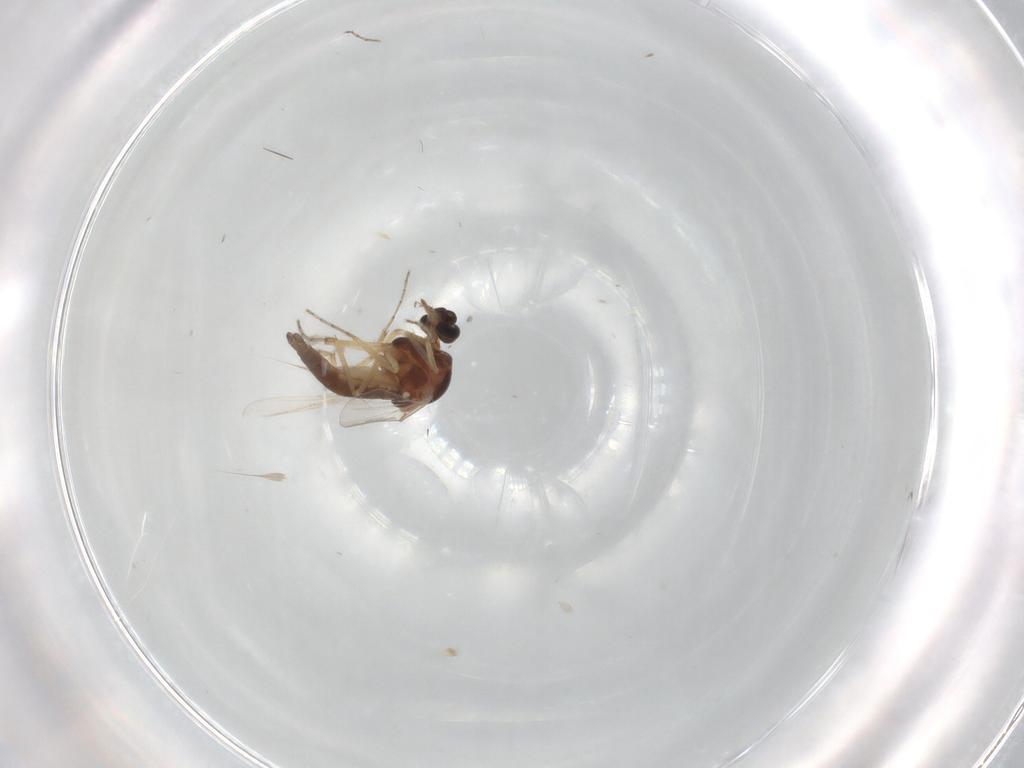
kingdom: Animalia
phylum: Arthropoda
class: Insecta
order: Diptera
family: Ceratopogonidae
